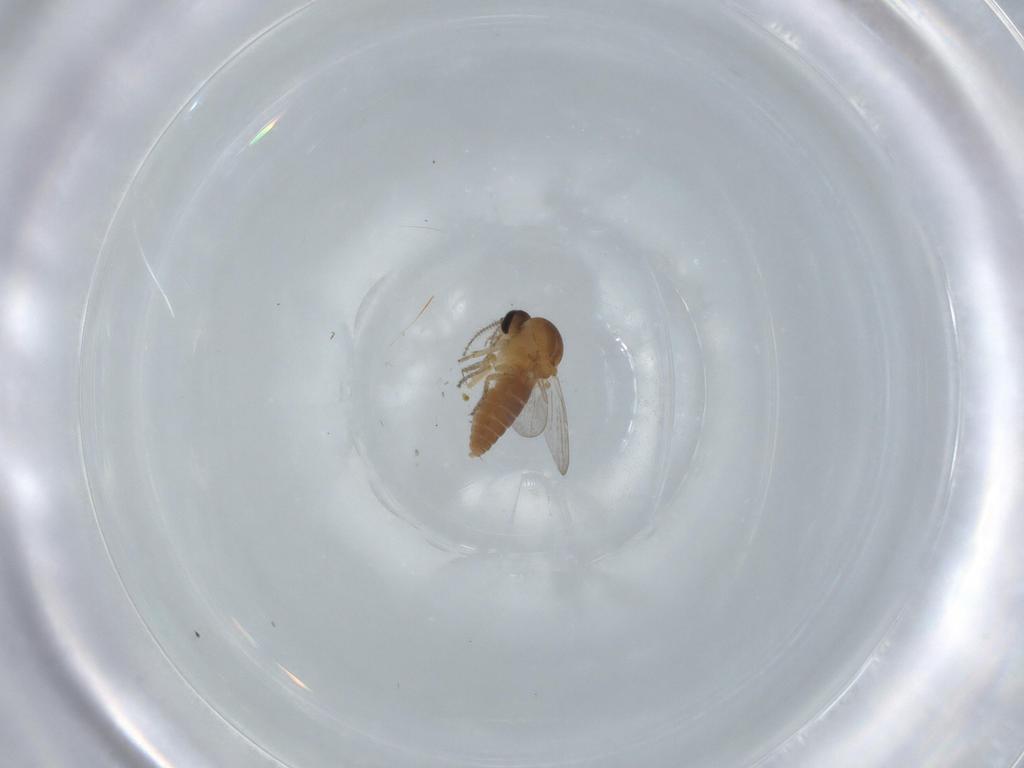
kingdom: Animalia
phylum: Arthropoda
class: Insecta
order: Diptera
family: Ceratopogonidae
